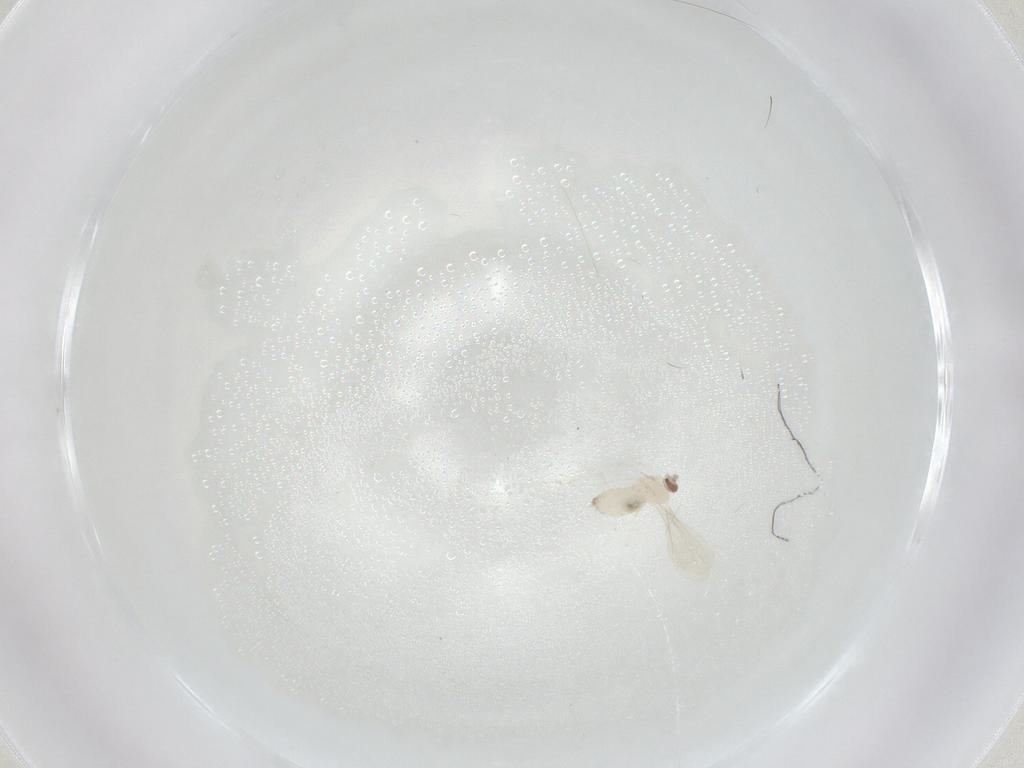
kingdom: Animalia
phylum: Arthropoda
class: Insecta
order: Diptera
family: Cecidomyiidae
